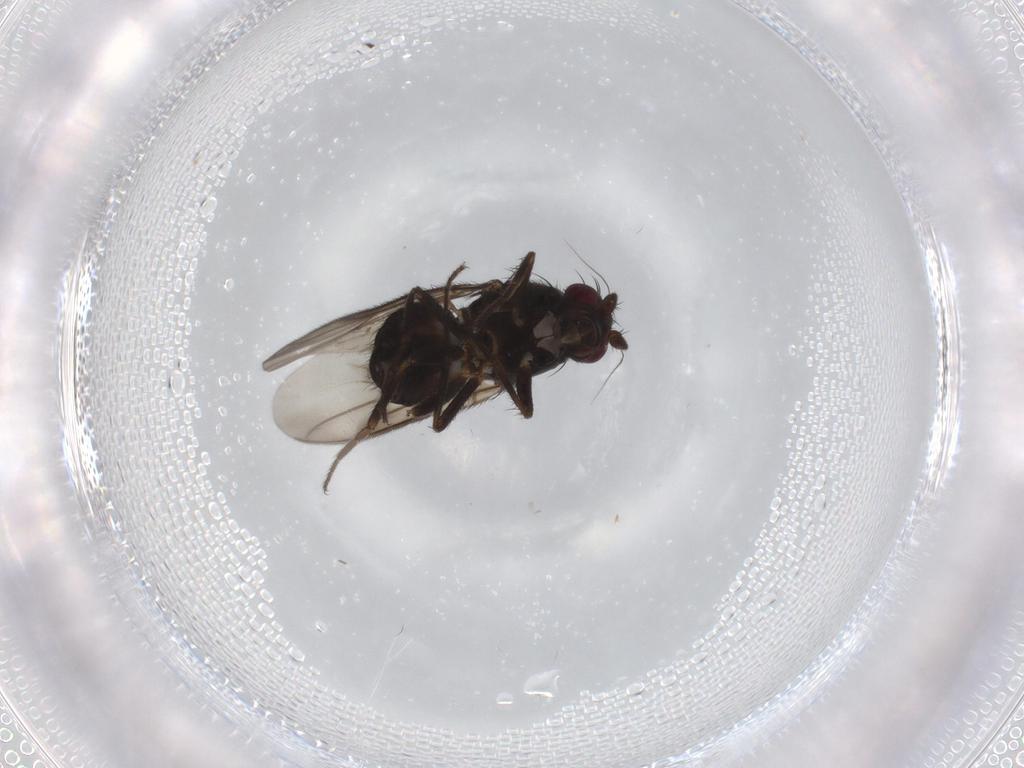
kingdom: Animalia
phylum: Arthropoda
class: Insecta
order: Diptera
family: Sphaeroceridae
